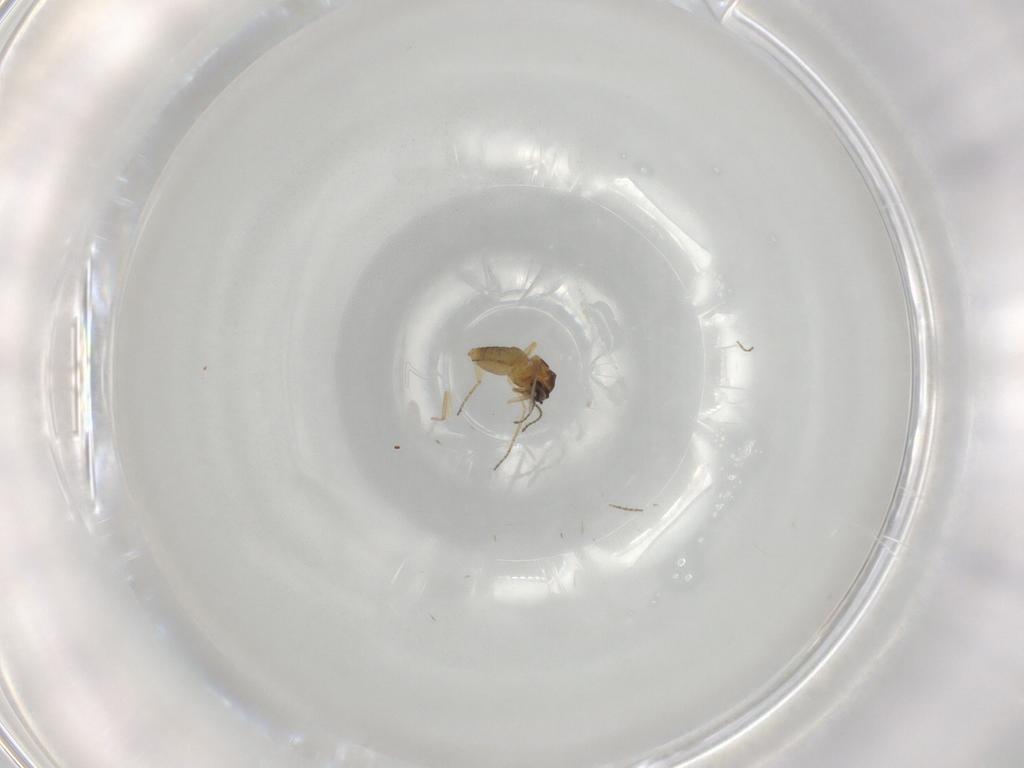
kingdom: Animalia
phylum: Arthropoda
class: Insecta
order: Diptera
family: Ceratopogonidae
